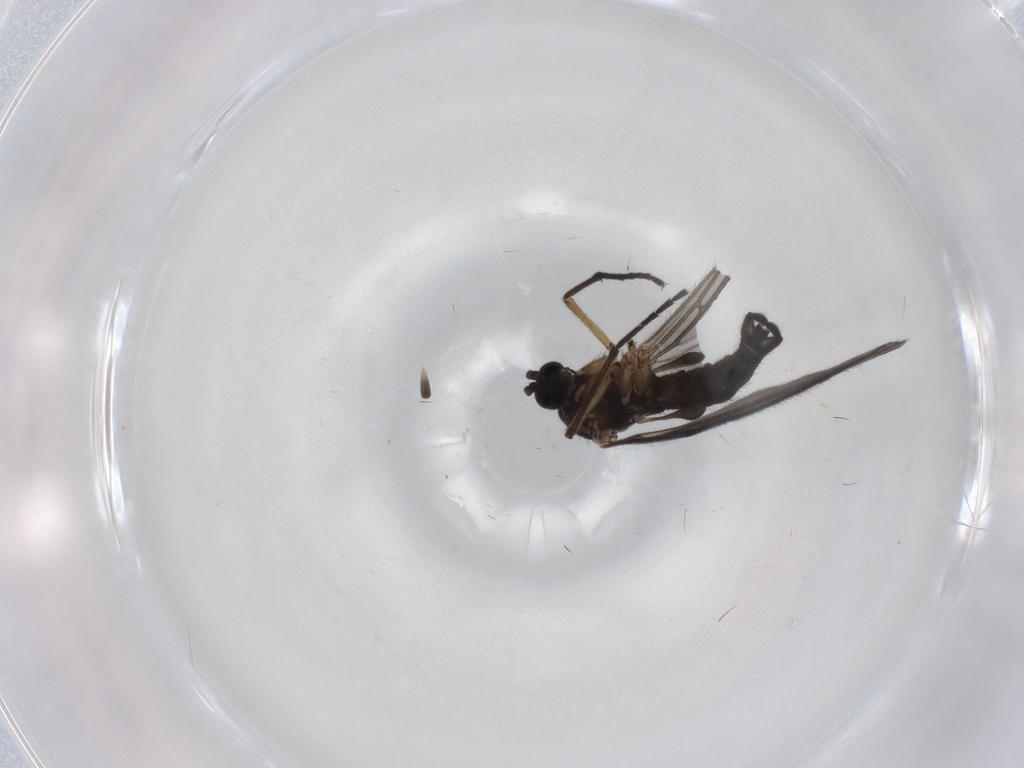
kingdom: Animalia
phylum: Arthropoda
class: Insecta
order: Diptera
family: Sciaridae
